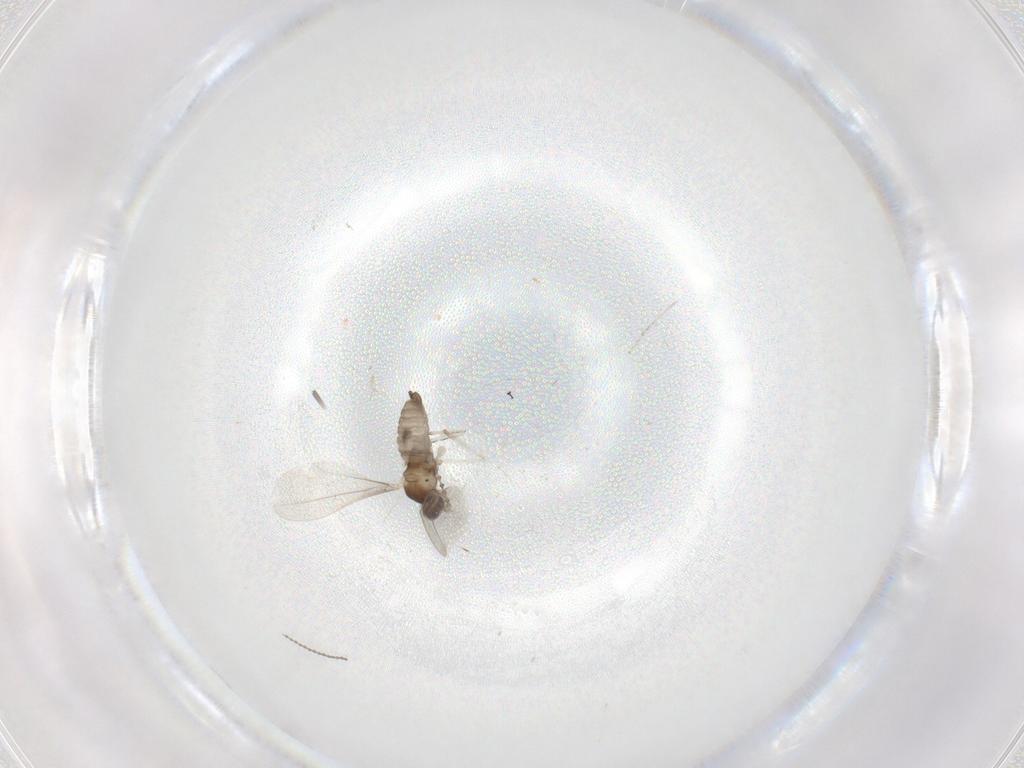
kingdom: Animalia
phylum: Arthropoda
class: Insecta
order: Diptera
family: Cecidomyiidae
